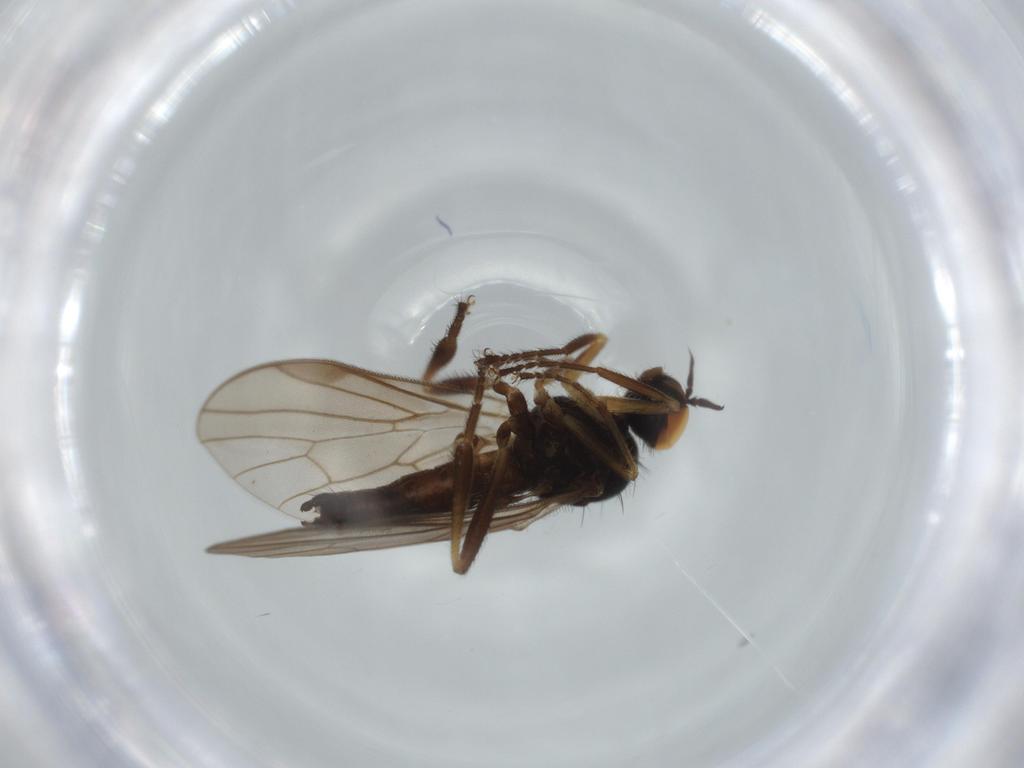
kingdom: Animalia
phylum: Arthropoda
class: Insecta
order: Diptera
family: Hybotidae
